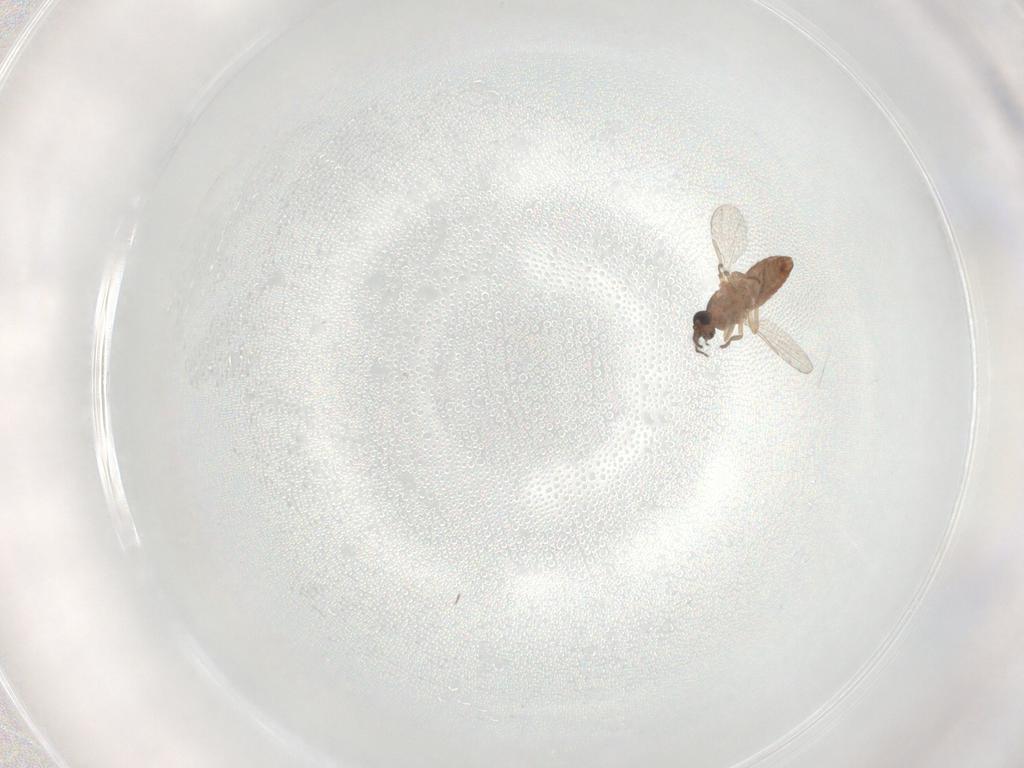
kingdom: Animalia
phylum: Arthropoda
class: Insecta
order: Diptera
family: Ceratopogonidae
